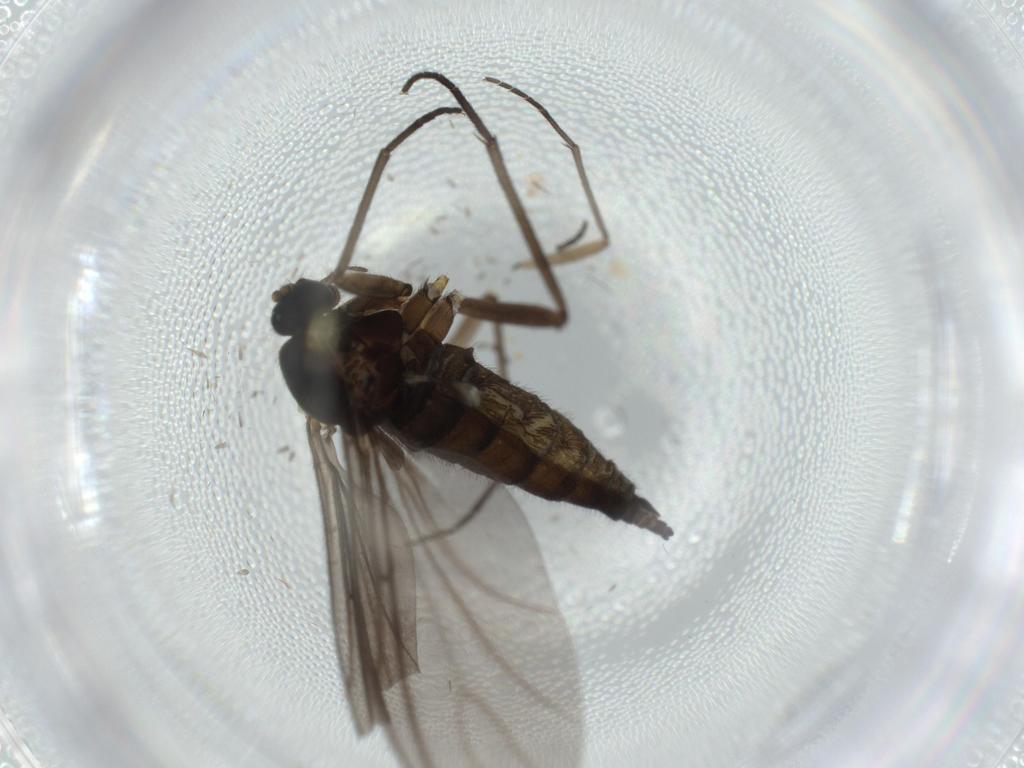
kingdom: Animalia
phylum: Arthropoda
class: Insecta
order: Diptera
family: Sciaridae
